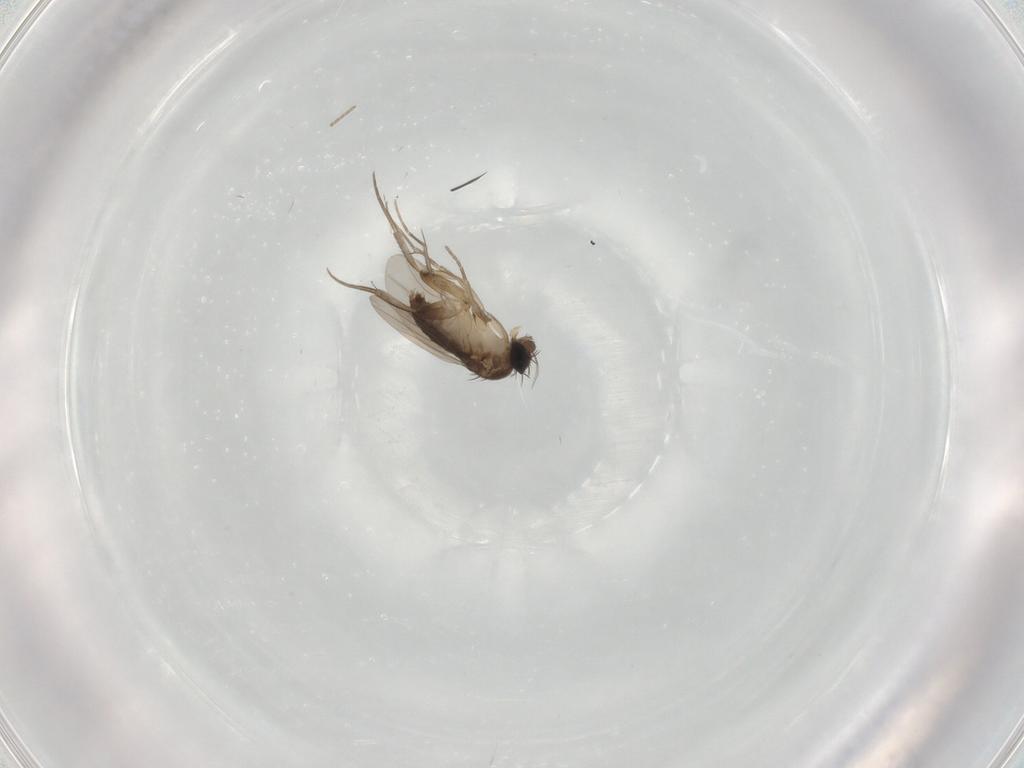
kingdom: Animalia
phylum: Arthropoda
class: Insecta
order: Diptera
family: Phoridae
